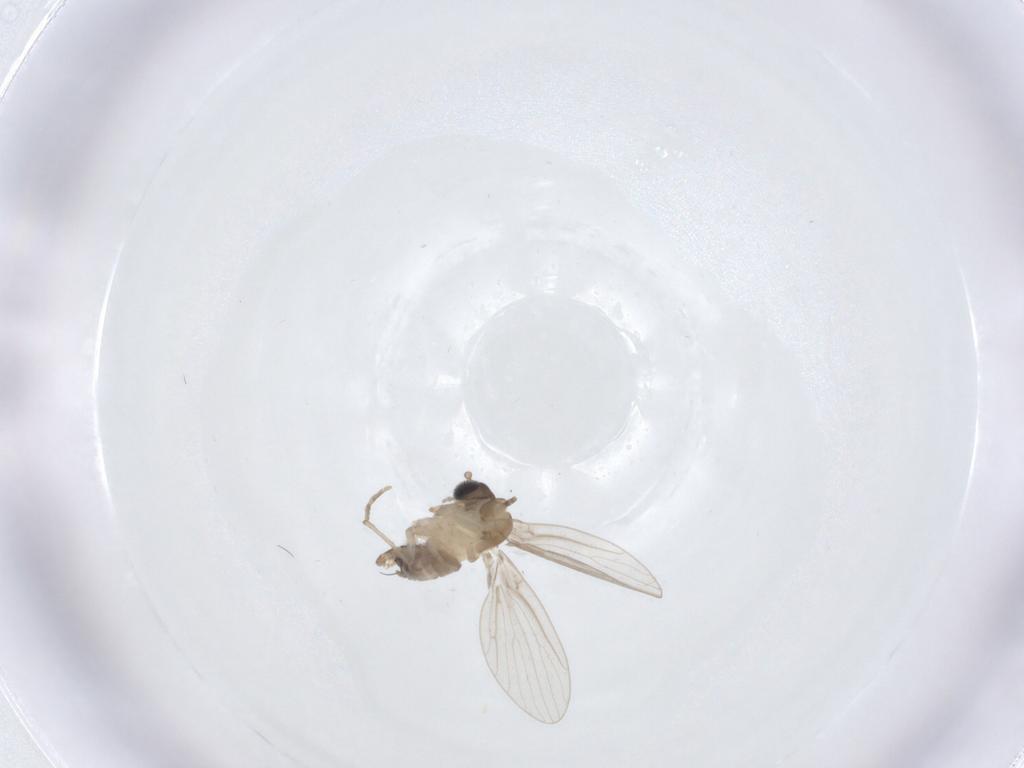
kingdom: Animalia
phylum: Arthropoda
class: Insecta
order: Diptera
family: Psychodidae
